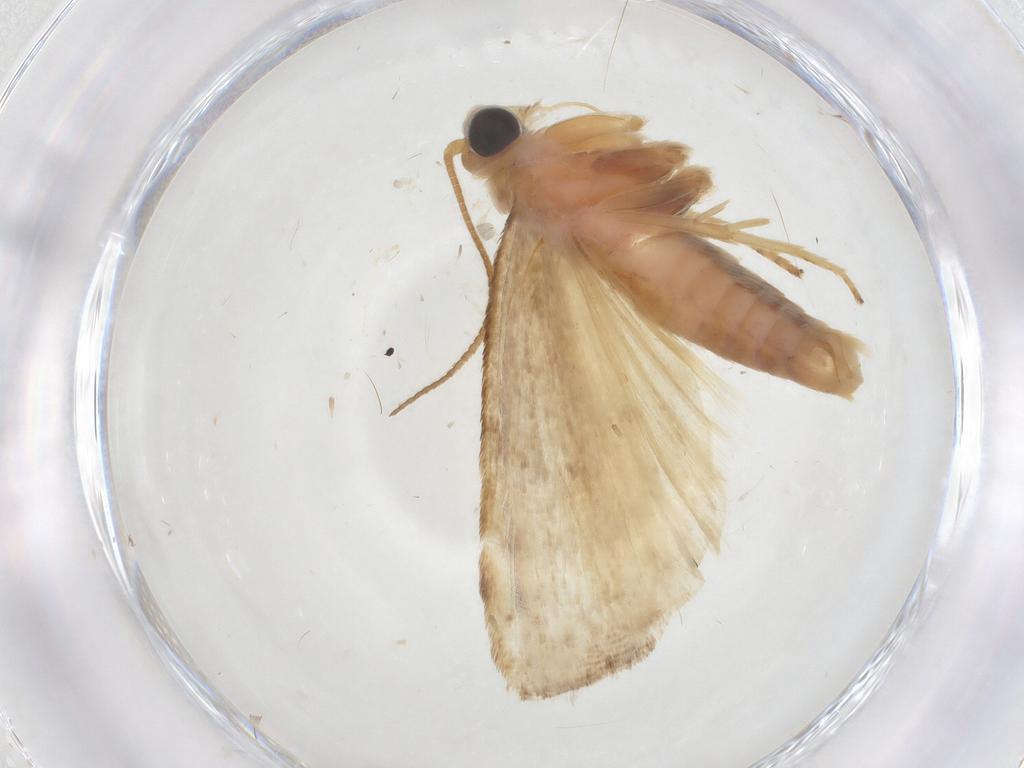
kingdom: Animalia
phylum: Arthropoda
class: Insecta
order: Lepidoptera
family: Pyralidae
